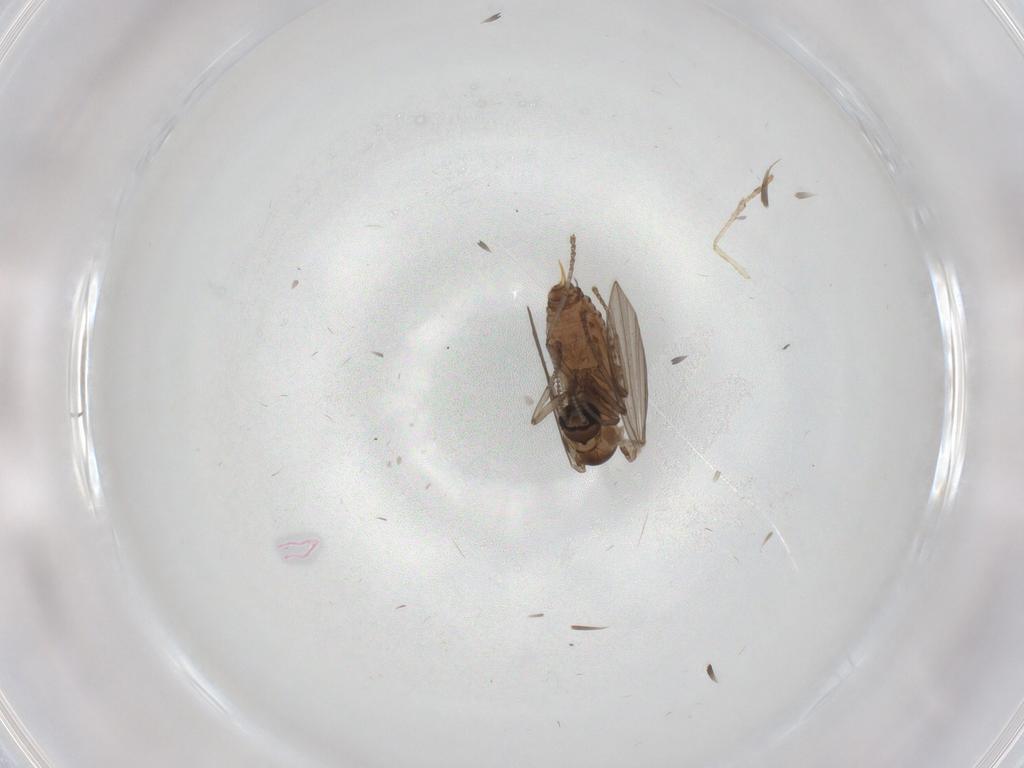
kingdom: Animalia
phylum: Arthropoda
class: Insecta
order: Diptera
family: Psychodidae
